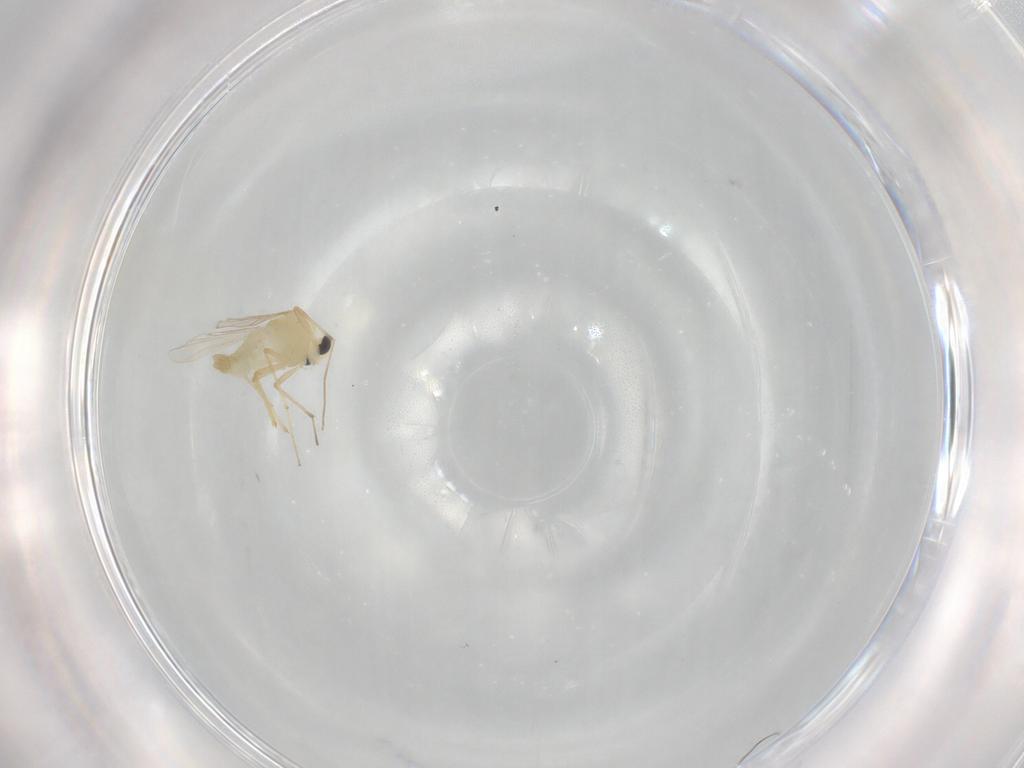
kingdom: Animalia
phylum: Arthropoda
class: Insecta
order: Diptera
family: Chironomidae
